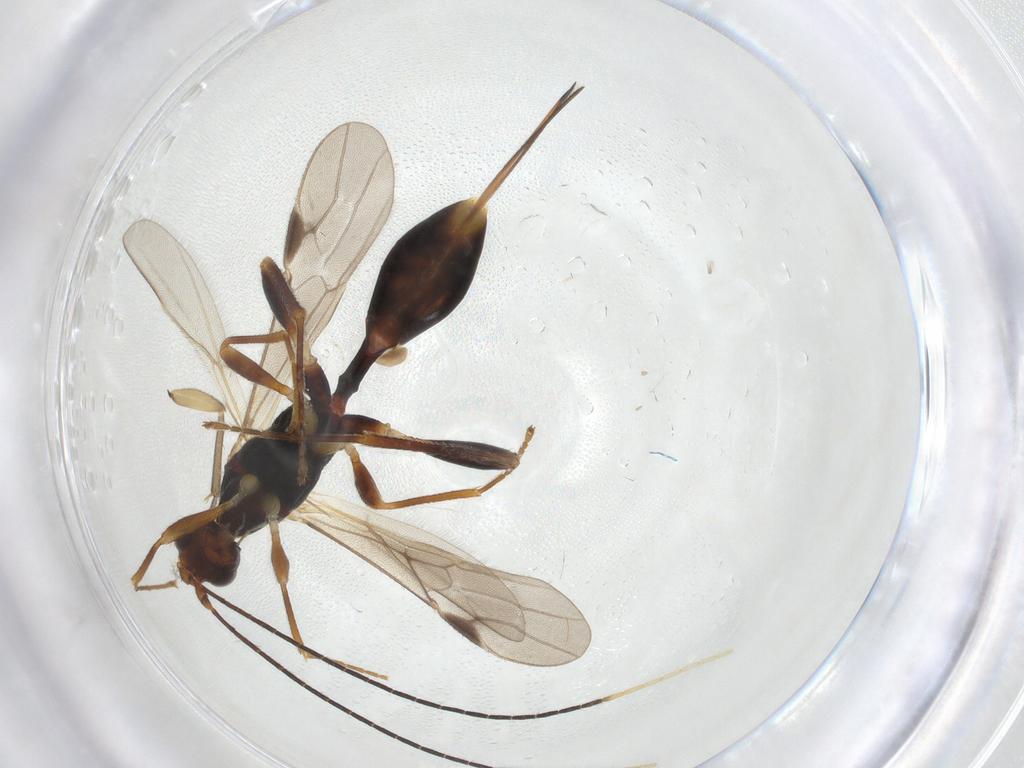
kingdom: Animalia
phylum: Arthropoda
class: Insecta
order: Hymenoptera
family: Braconidae
